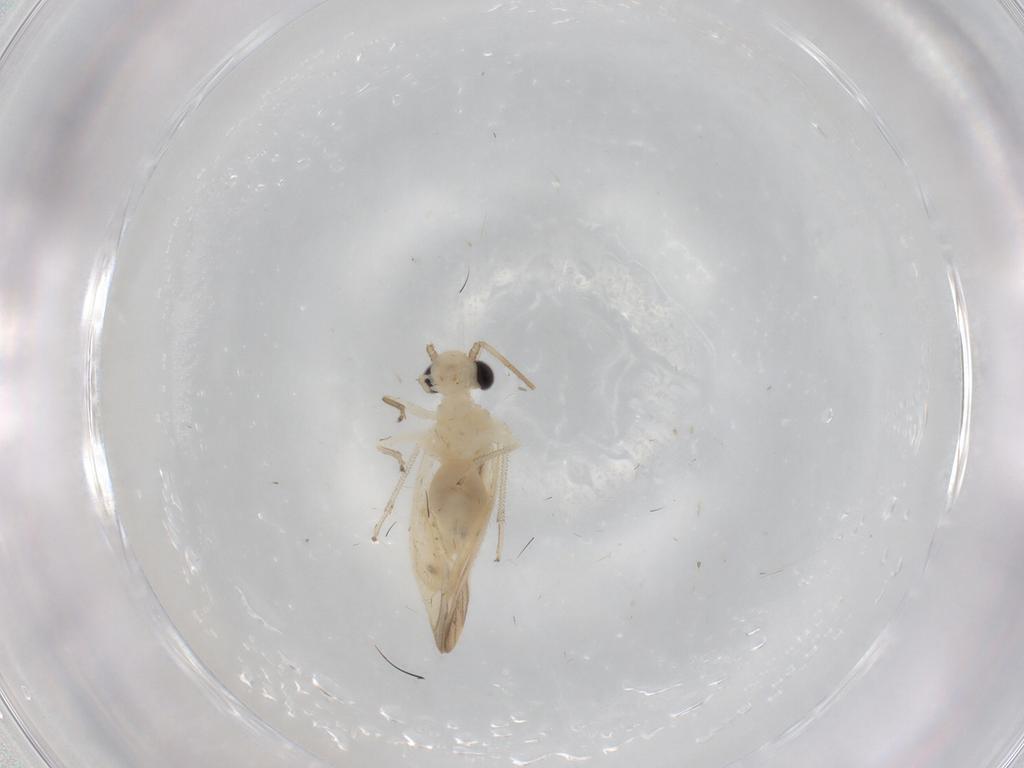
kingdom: Animalia
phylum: Arthropoda
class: Insecta
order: Psocodea
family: Caeciliusidae
